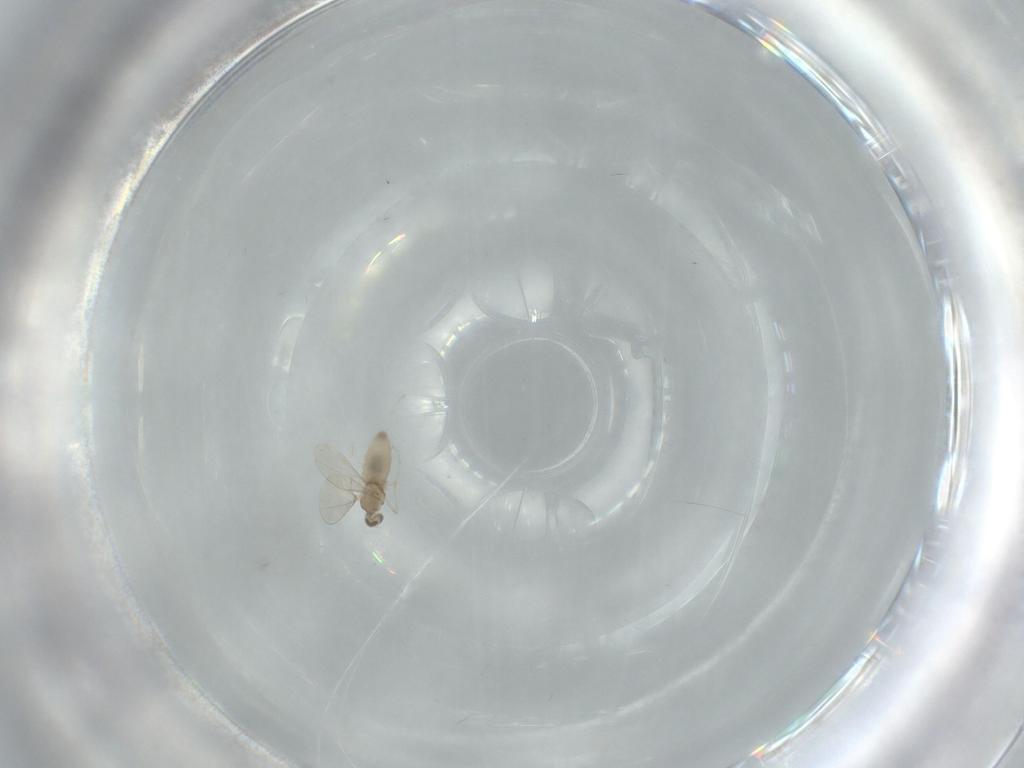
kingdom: Animalia
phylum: Arthropoda
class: Insecta
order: Diptera
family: Cecidomyiidae
